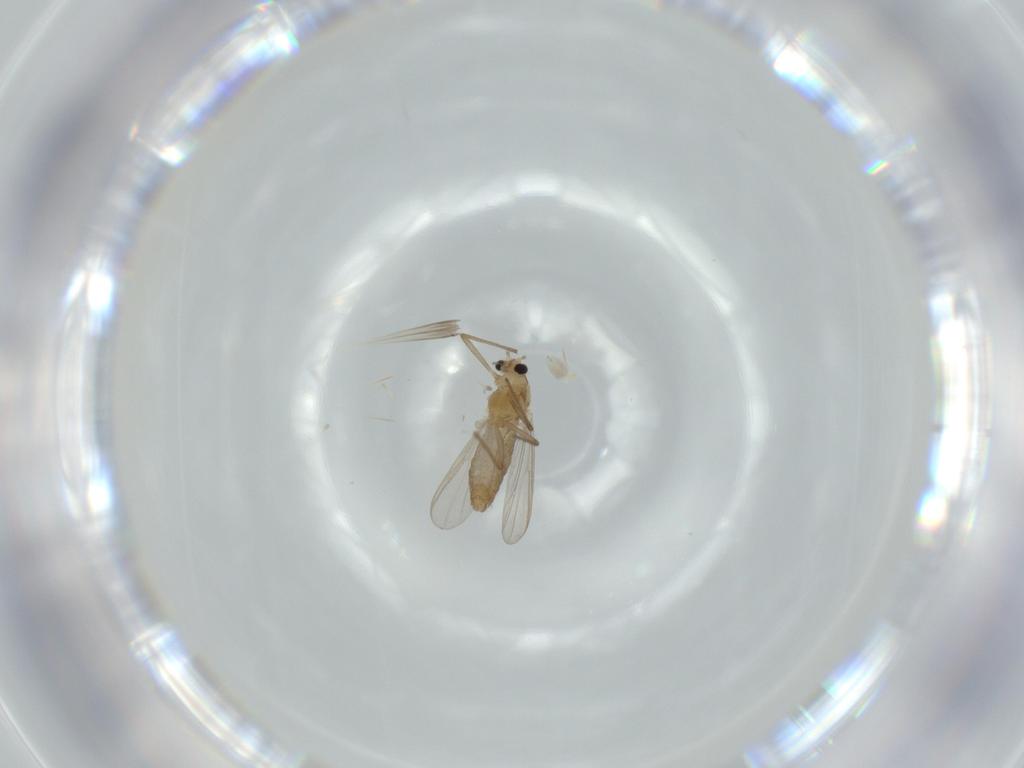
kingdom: Animalia
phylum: Arthropoda
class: Insecta
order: Diptera
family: Chironomidae
